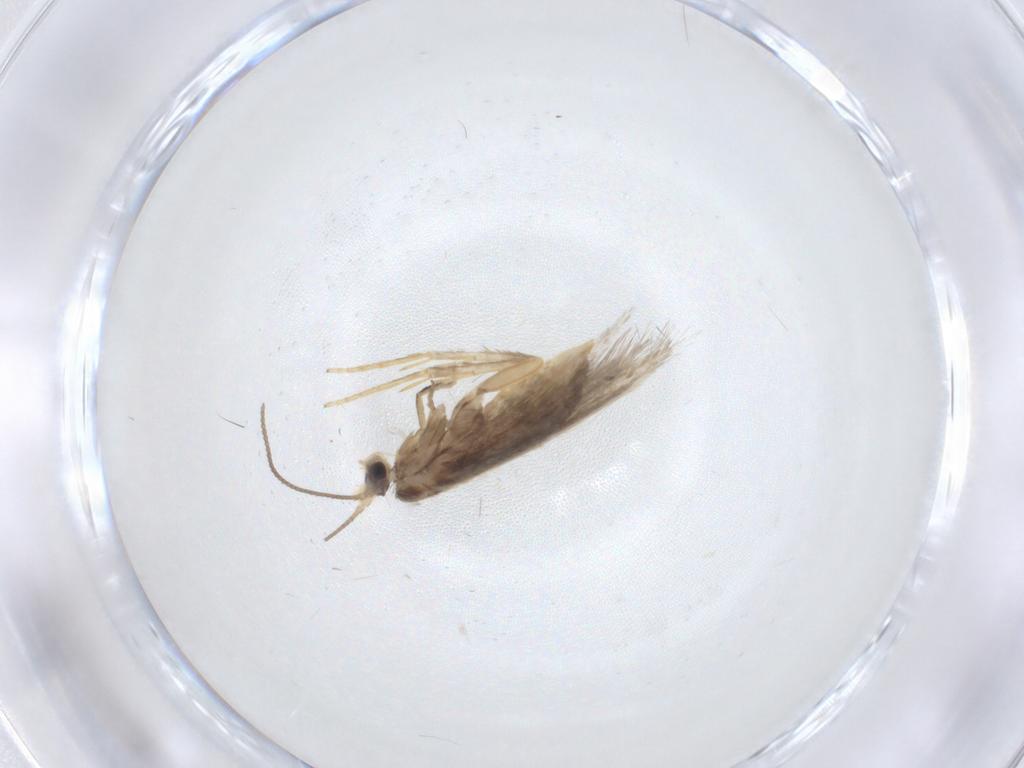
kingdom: Animalia
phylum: Arthropoda
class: Insecta
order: Lepidoptera
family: Nepticulidae
